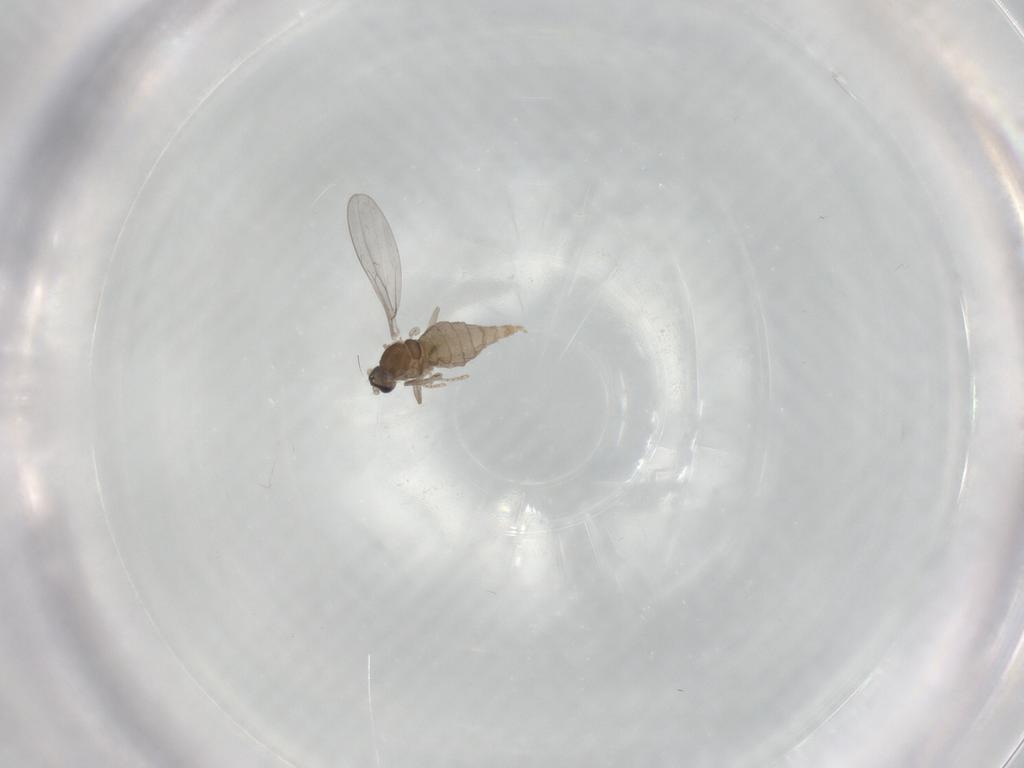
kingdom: Animalia
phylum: Arthropoda
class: Insecta
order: Diptera
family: Cecidomyiidae
